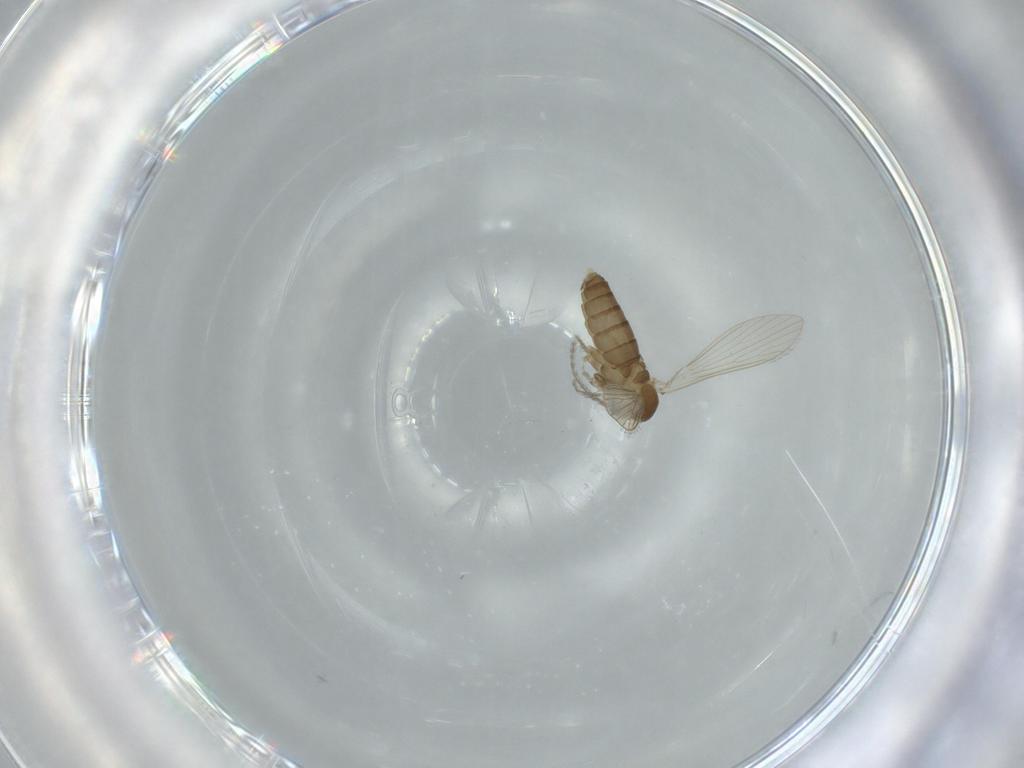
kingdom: Animalia
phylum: Arthropoda
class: Insecta
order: Diptera
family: Psychodidae
